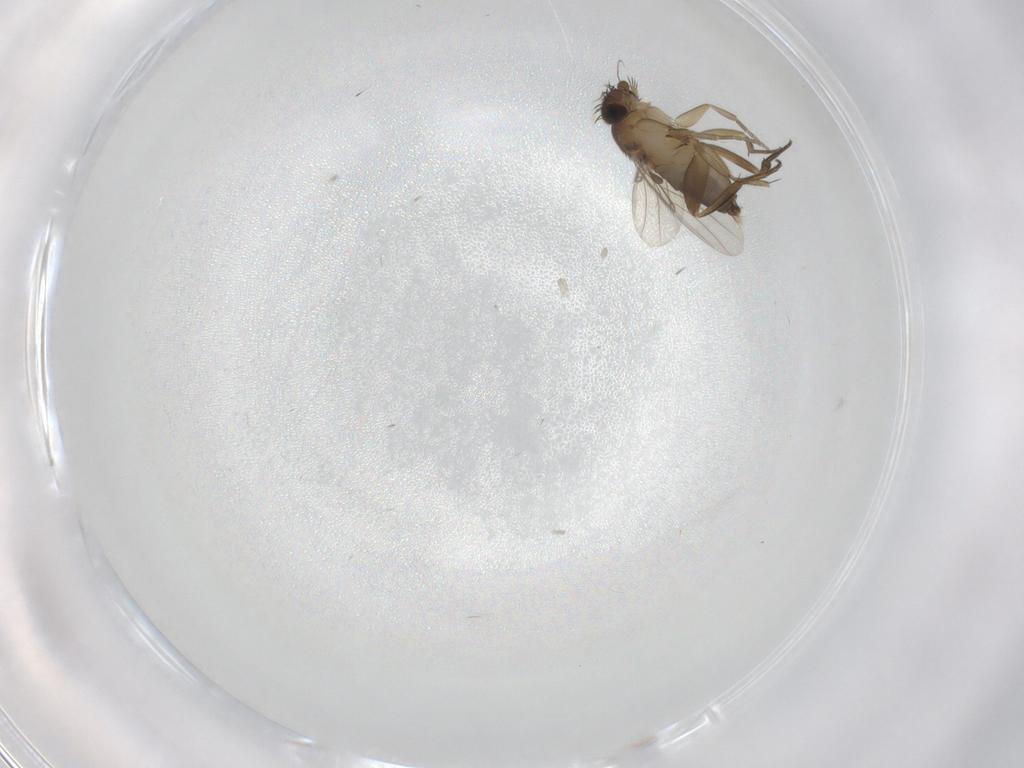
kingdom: Animalia
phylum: Arthropoda
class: Insecta
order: Diptera
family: Phoridae
